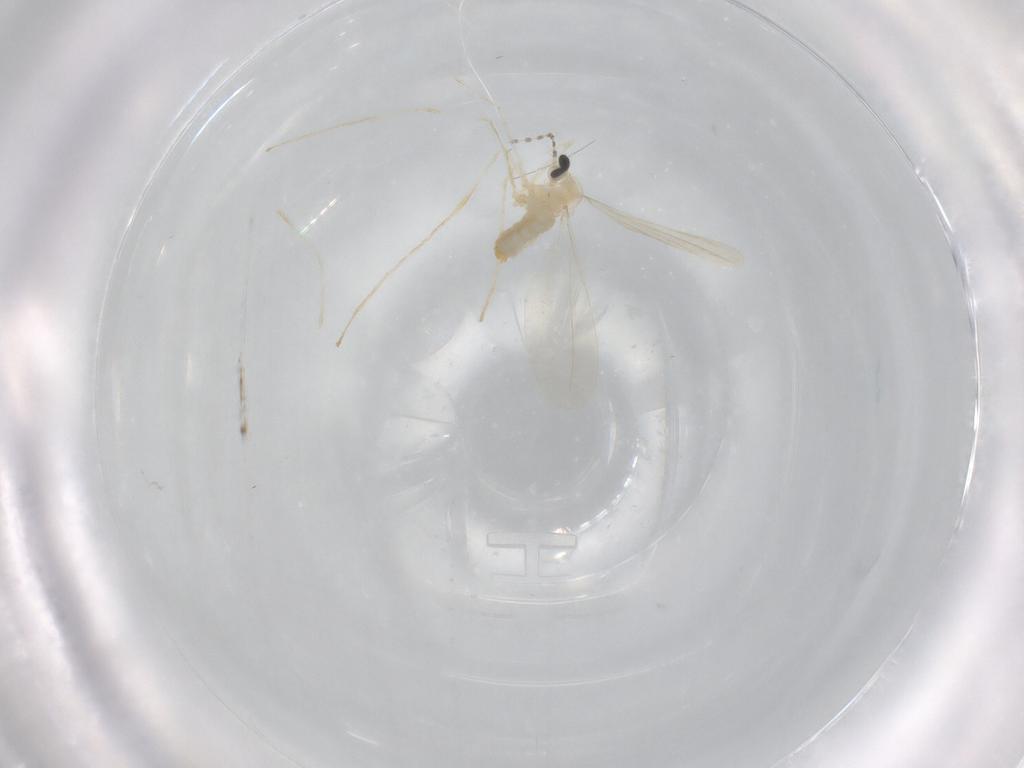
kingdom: Animalia
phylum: Arthropoda
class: Insecta
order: Diptera
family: Cecidomyiidae
